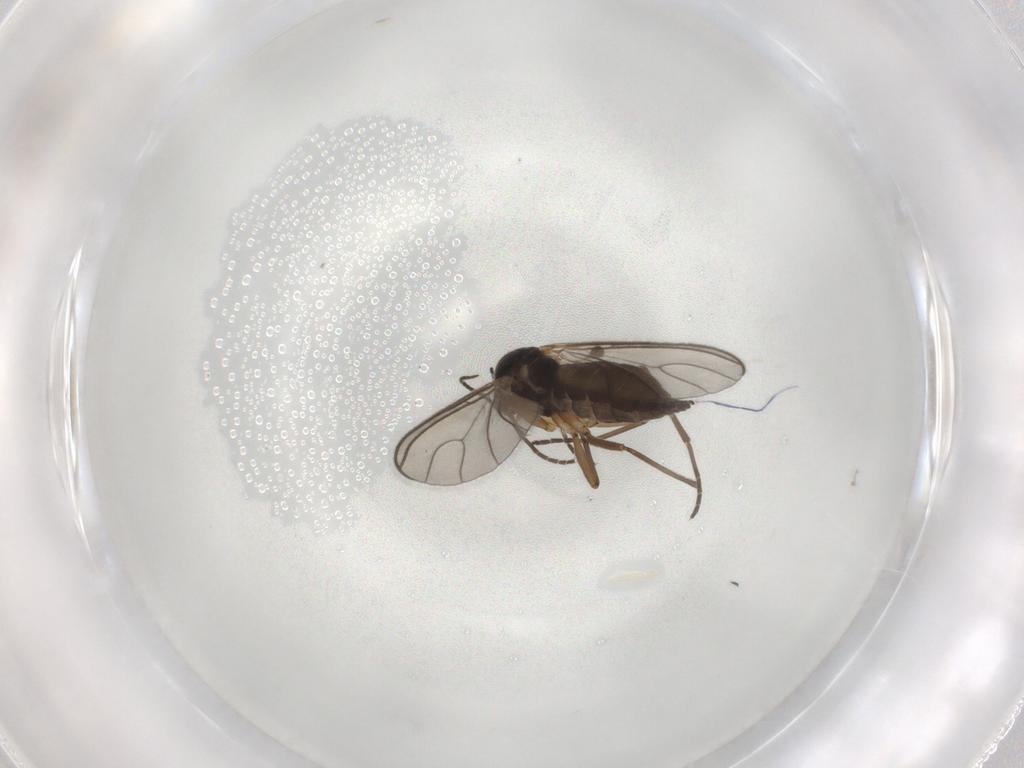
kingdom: Animalia
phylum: Arthropoda
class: Insecta
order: Diptera
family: Sciaridae
